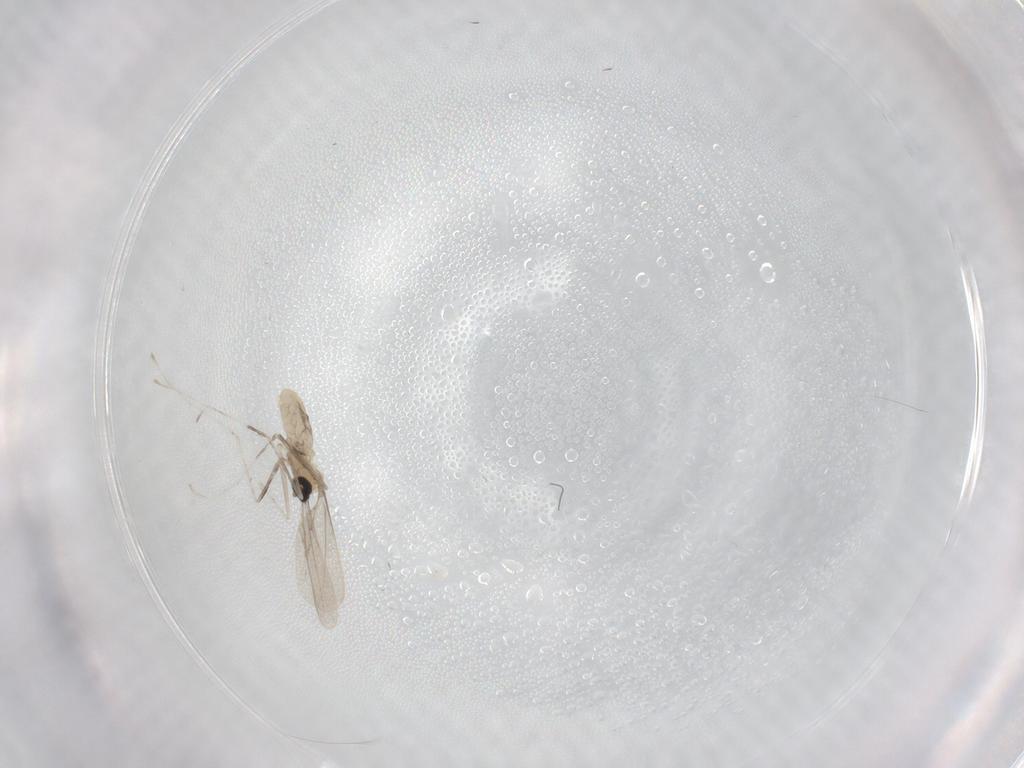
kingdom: Animalia
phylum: Arthropoda
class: Insecta
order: Diptera
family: Cecidomyiidae
